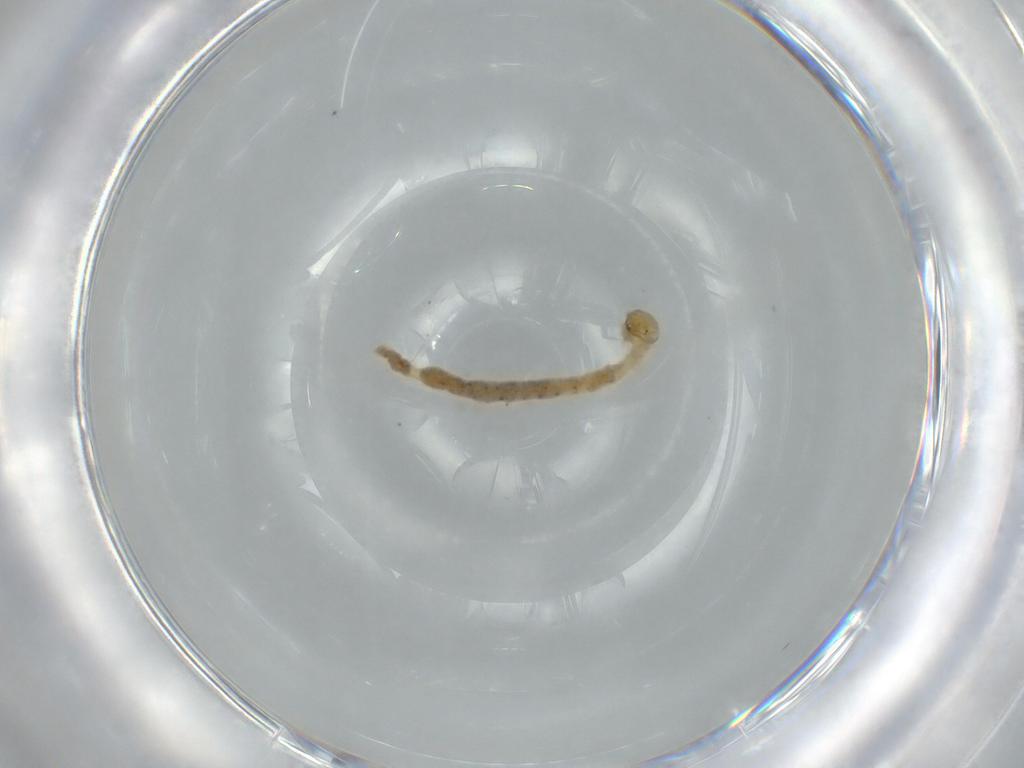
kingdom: Animalia
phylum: Arthropoda
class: Insecta
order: Diptera
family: Chironomidae
